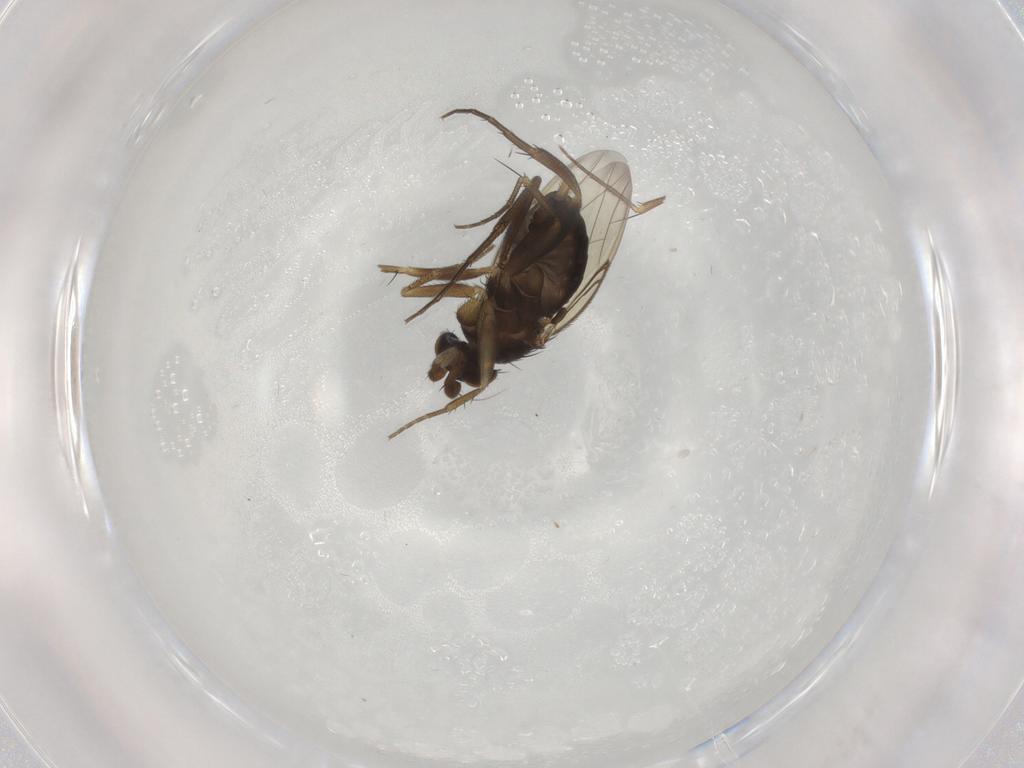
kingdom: Animalia
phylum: Arthropoda
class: Insecta
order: Diptera
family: Phoridae
